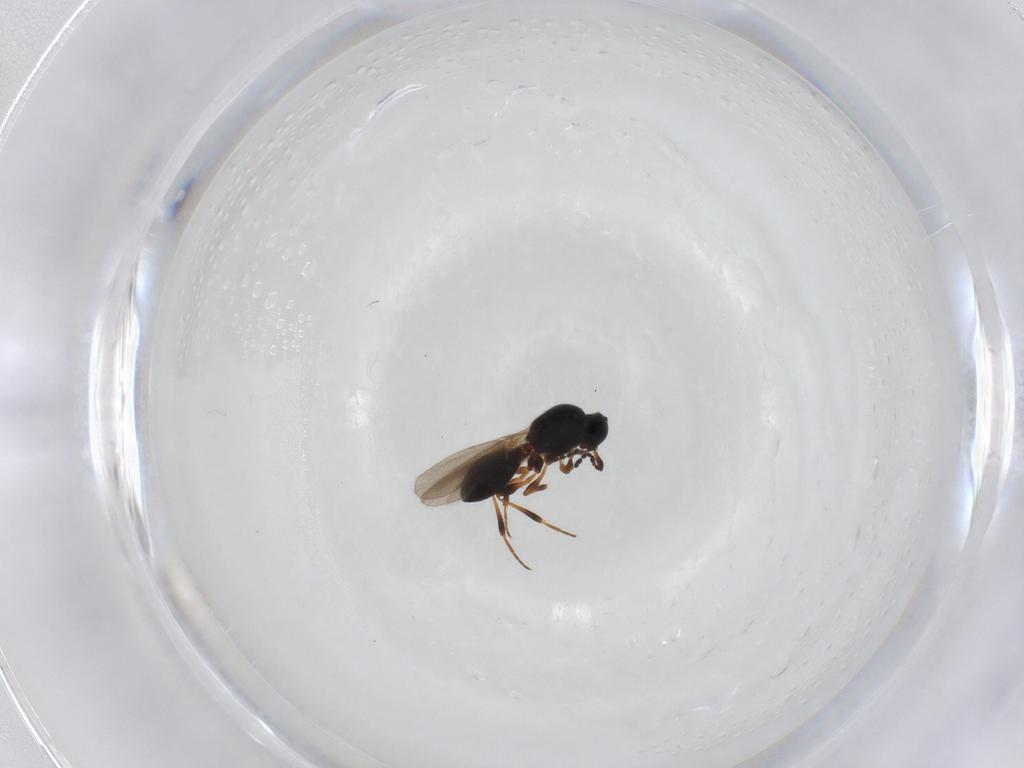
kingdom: Animalia
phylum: Arthropoda
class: Insecta
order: Hymenoptera
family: Platygastridae
